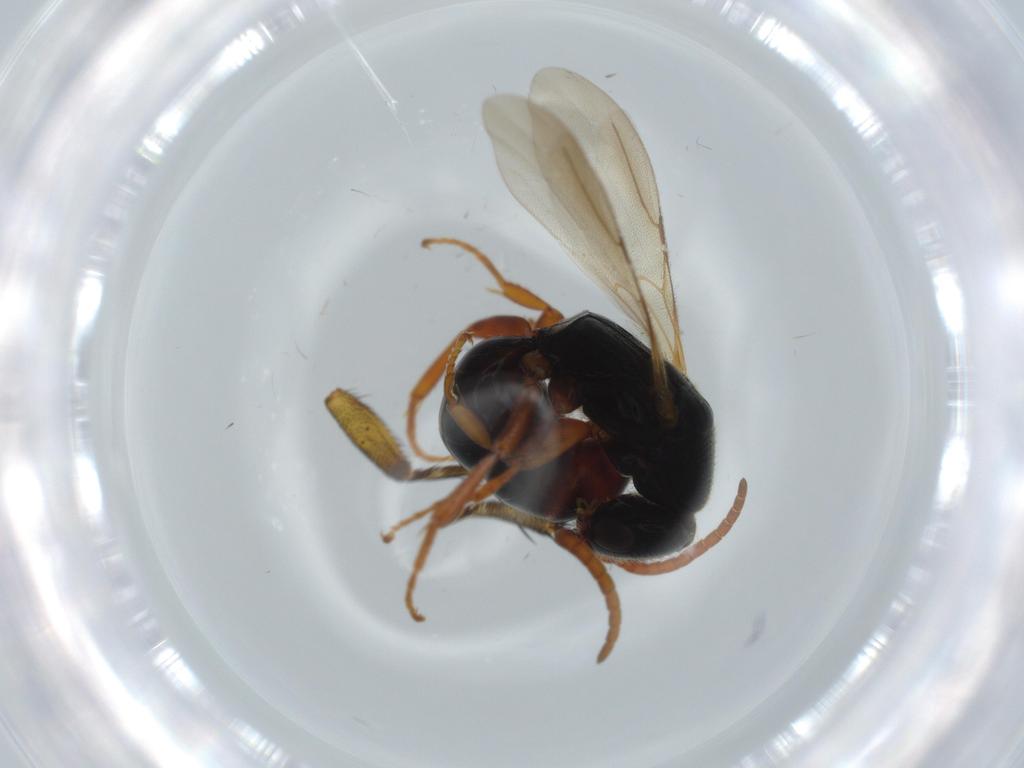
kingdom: Animalia
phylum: Arthropoda
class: Insecta
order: Hymenoptera
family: Bethylidae
